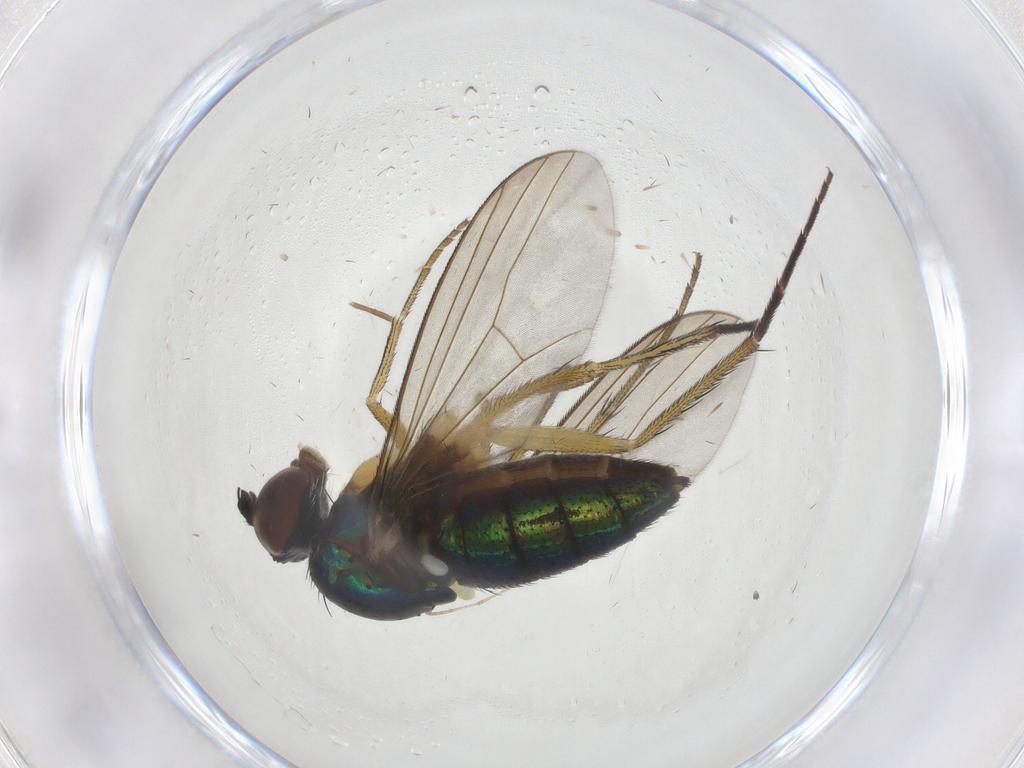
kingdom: Animalia
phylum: Arthropoda
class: Insecta
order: Diptera
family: Dolichopodidae
